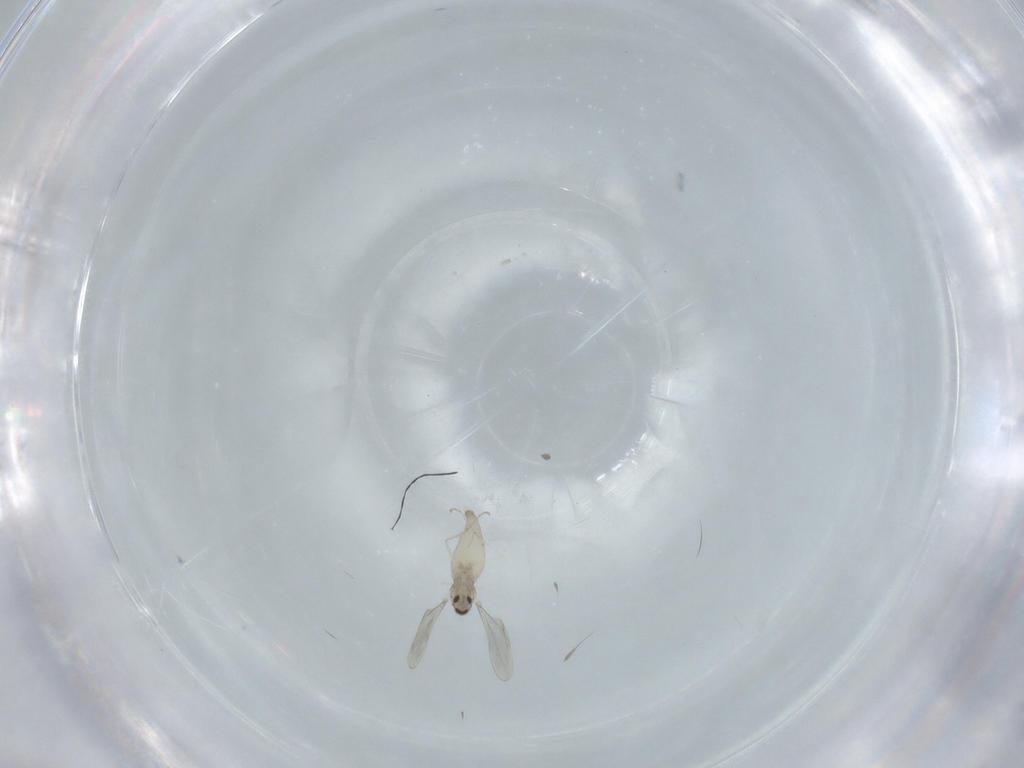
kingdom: Animalia
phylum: Arthropoda
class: Insecta
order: Diptera
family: Cecidomyiidae
